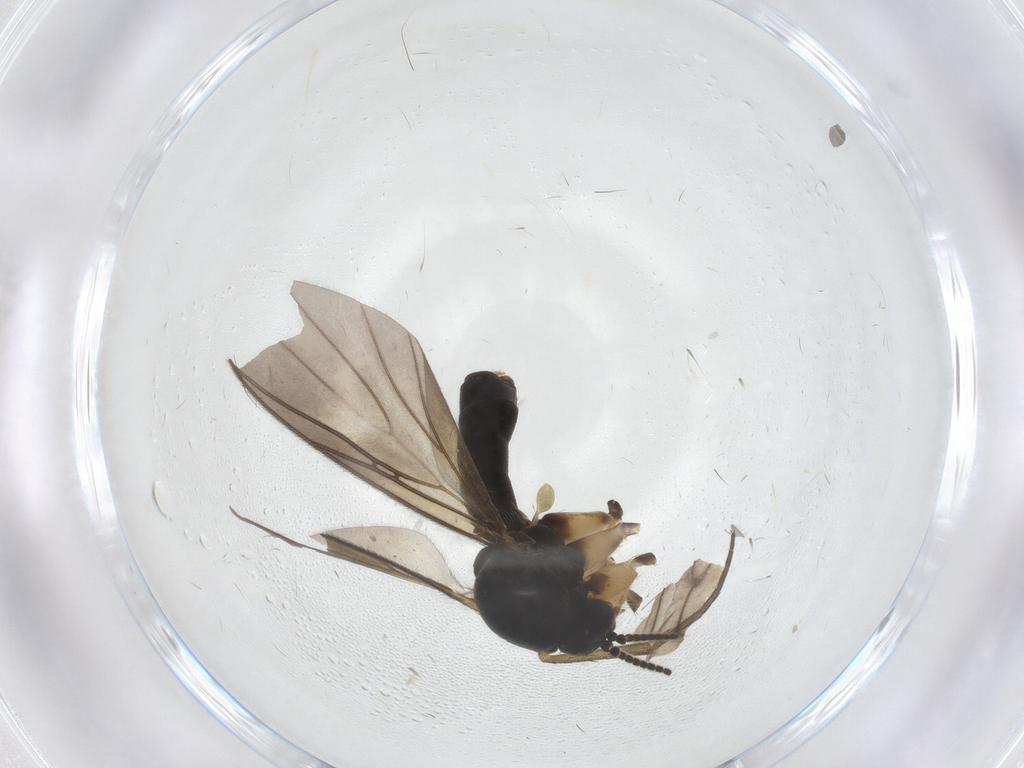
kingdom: Animalia
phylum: Arthropoda
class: Insecta
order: Diptera
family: Mycetophilidae
